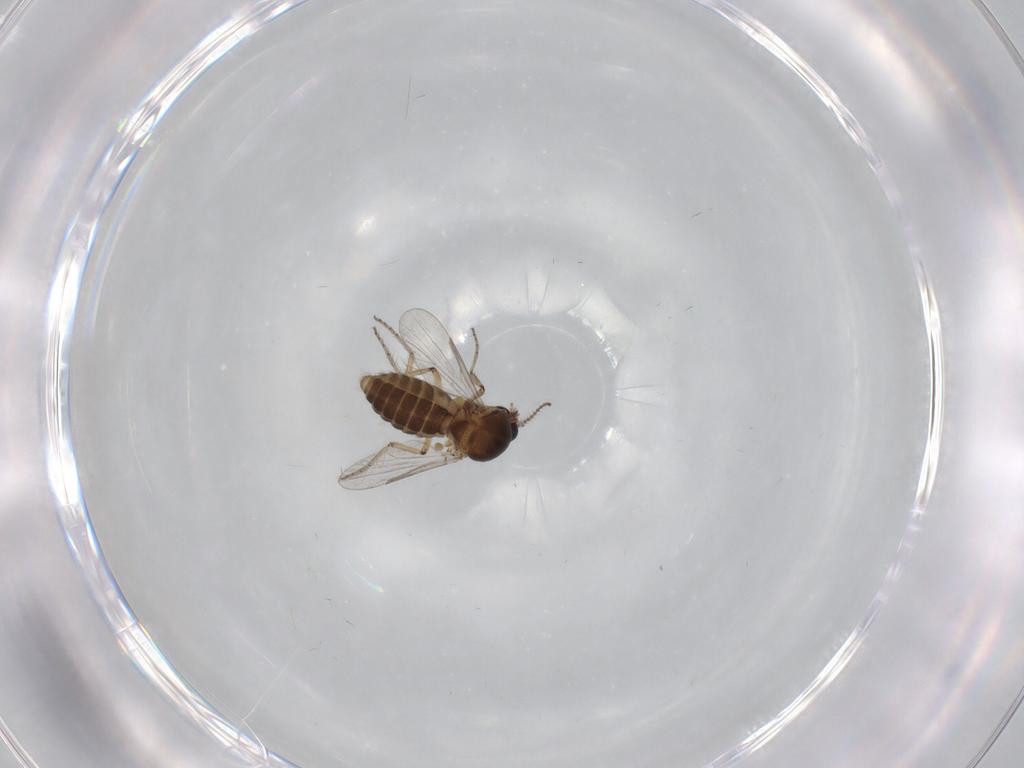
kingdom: Animalia
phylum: Arthropoda
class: Insecta
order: Diptera
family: Ceratopogonidae
